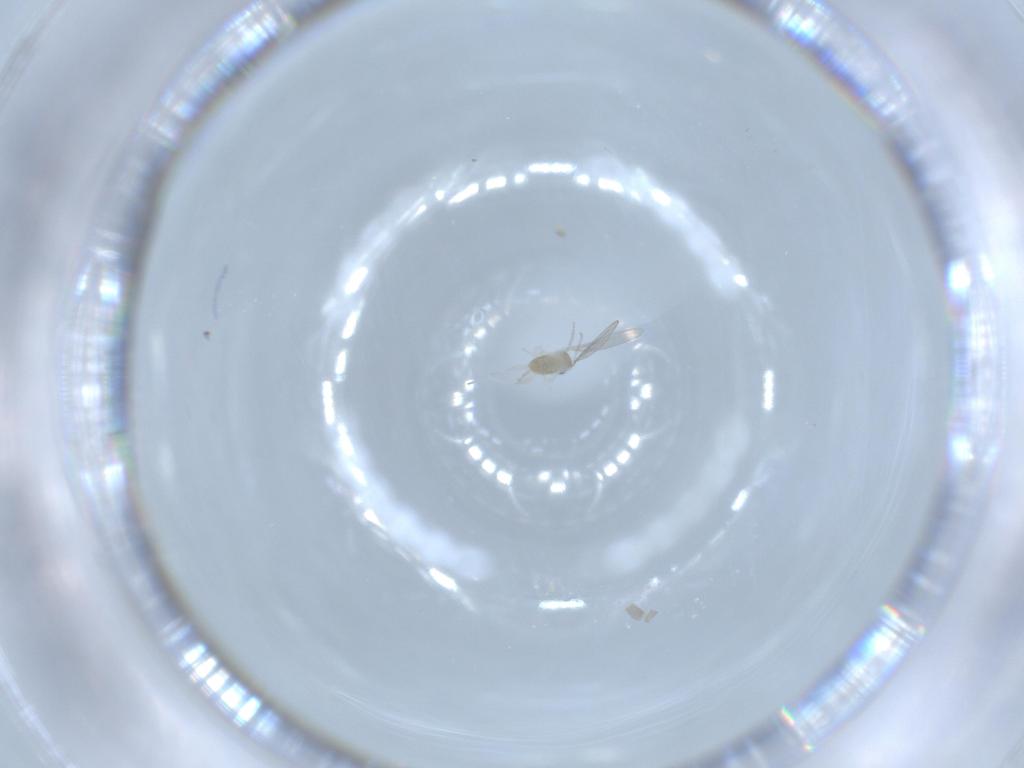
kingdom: Animalia
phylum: Arthropoda
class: Insecta
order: Diptera
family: Cecidomyiidae
